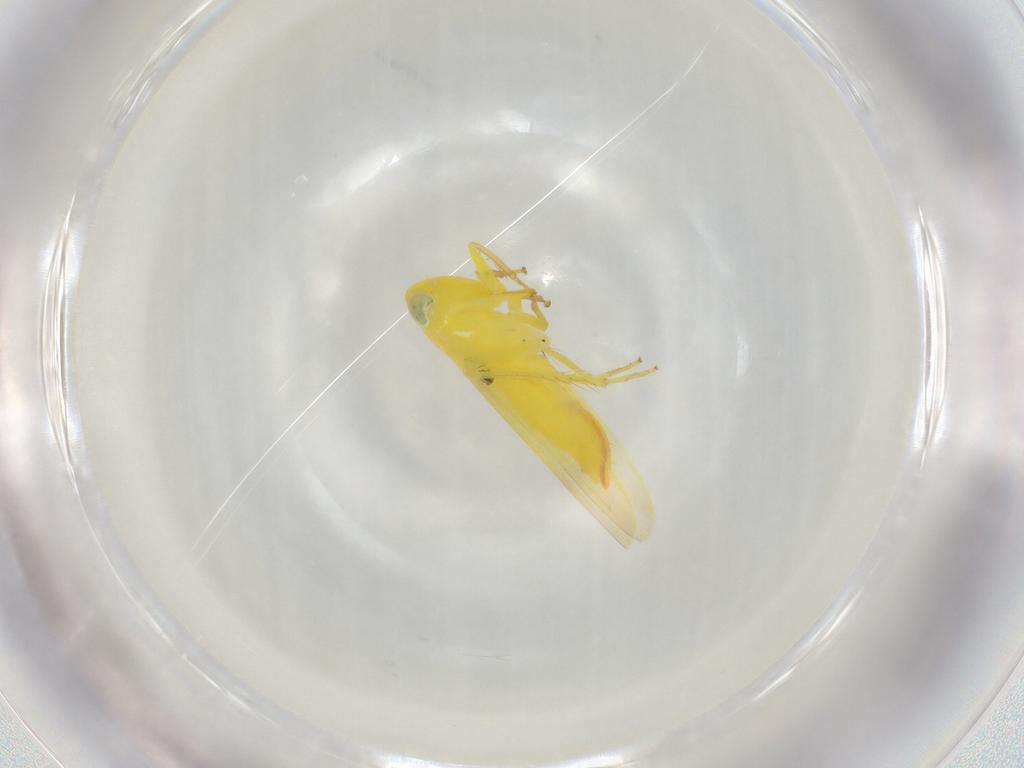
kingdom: Animalia
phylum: Arthropoda
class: Insecta
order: Hemiptera
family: Cicadellidae
